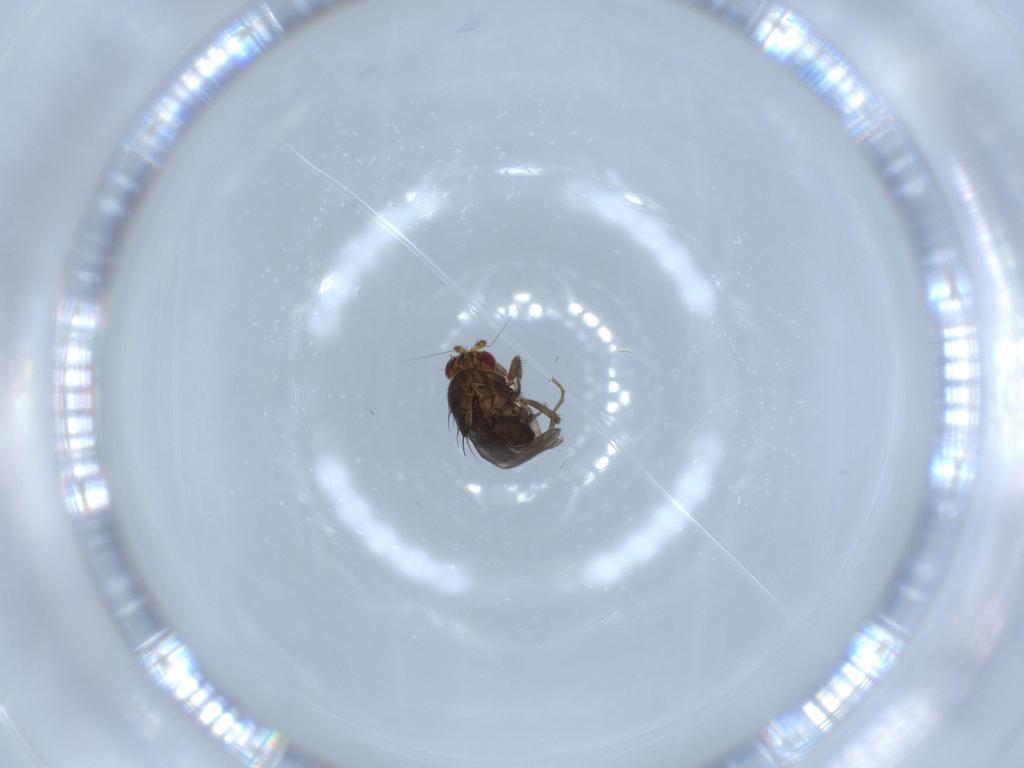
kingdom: Animalia
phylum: Arthropoda
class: Insecta
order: Diptera
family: Sphaeroceridae
